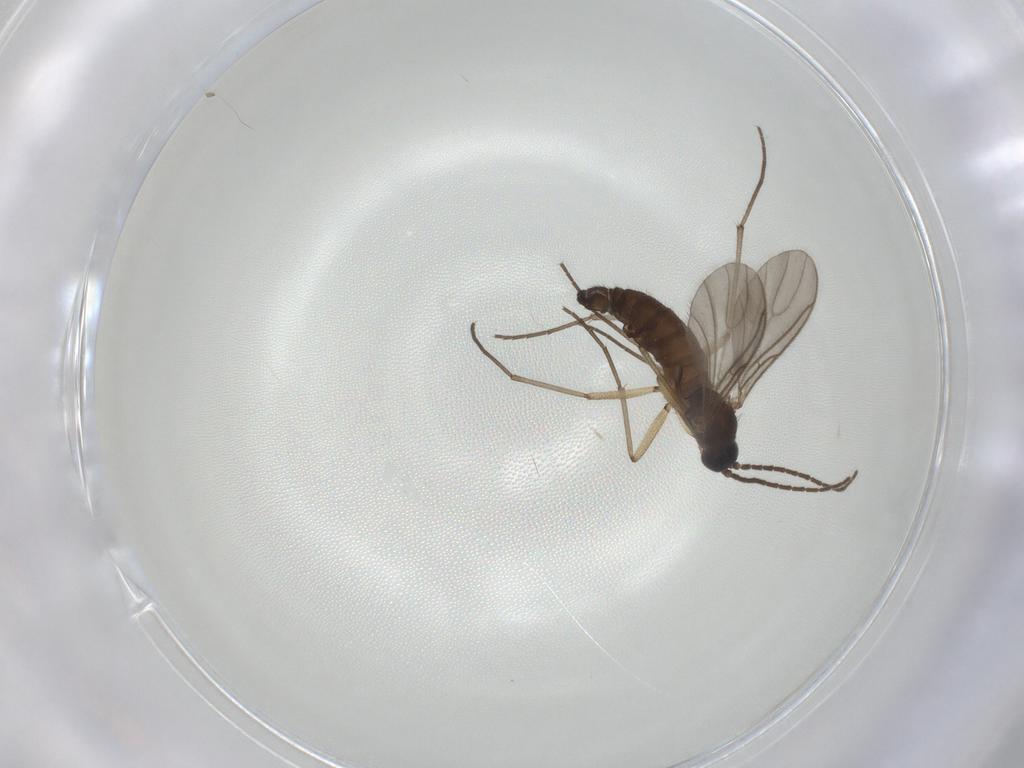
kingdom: Animalia
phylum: Arthropoda
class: Insecta
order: Diptera
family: Sciaridae
